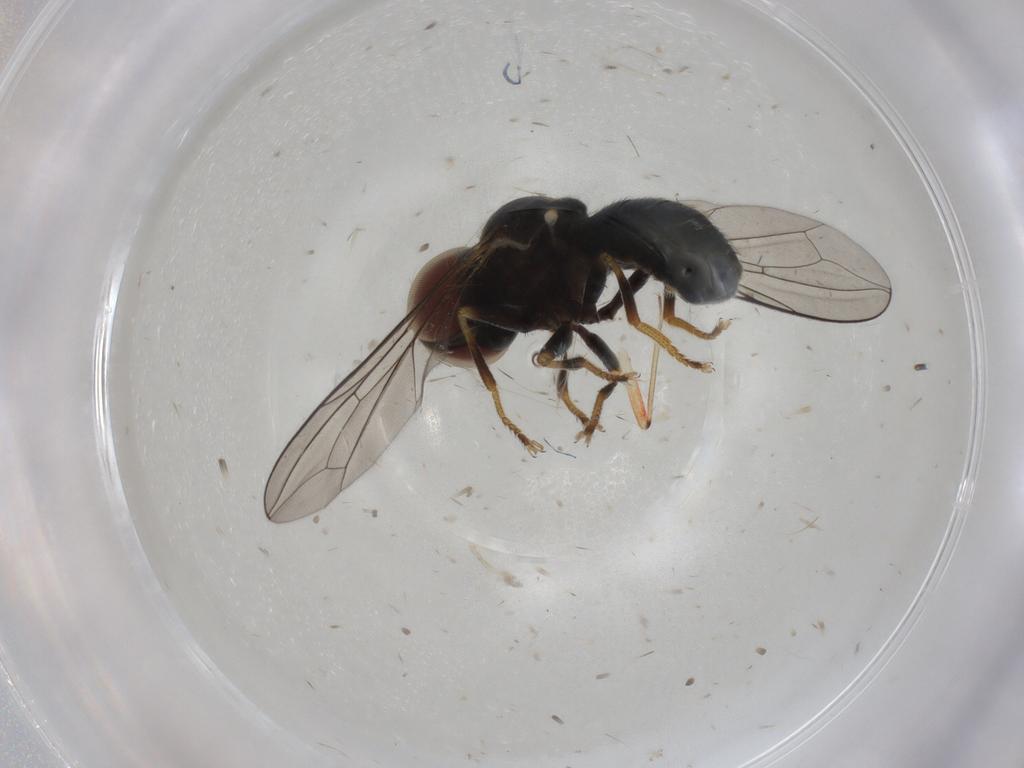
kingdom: Animalia
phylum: Arthropoda
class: Insecta
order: Diptera
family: Pipunculidae
